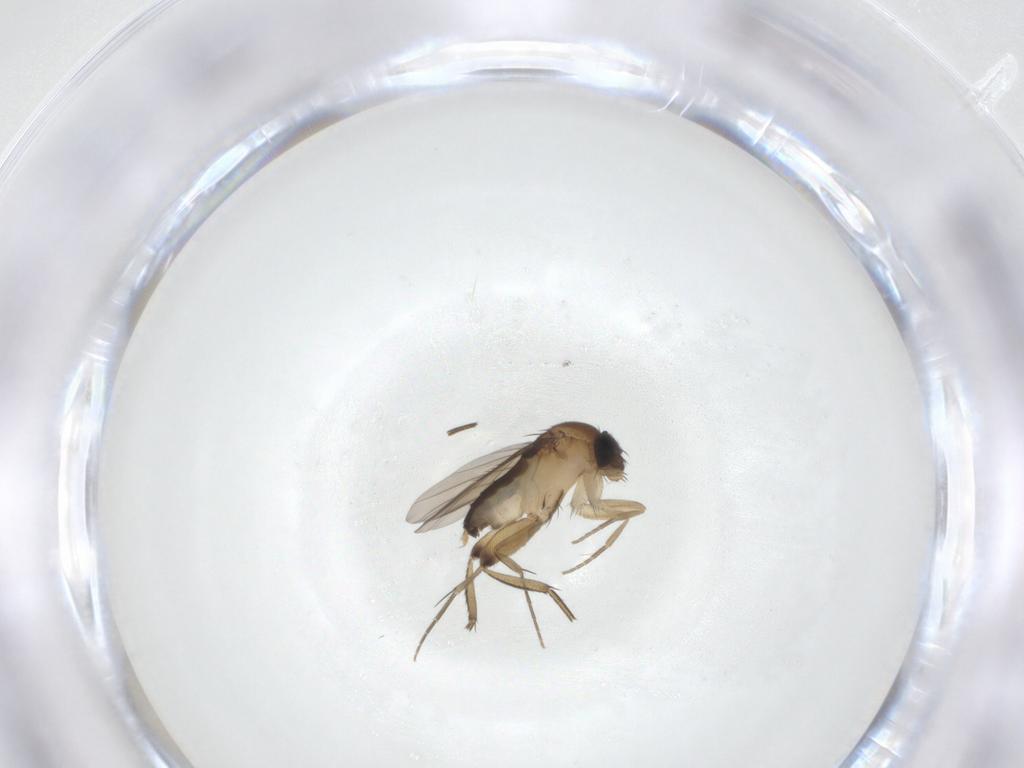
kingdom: Animalia
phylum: Arthropoda
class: Insecta
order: Diptera
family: Phoridae
